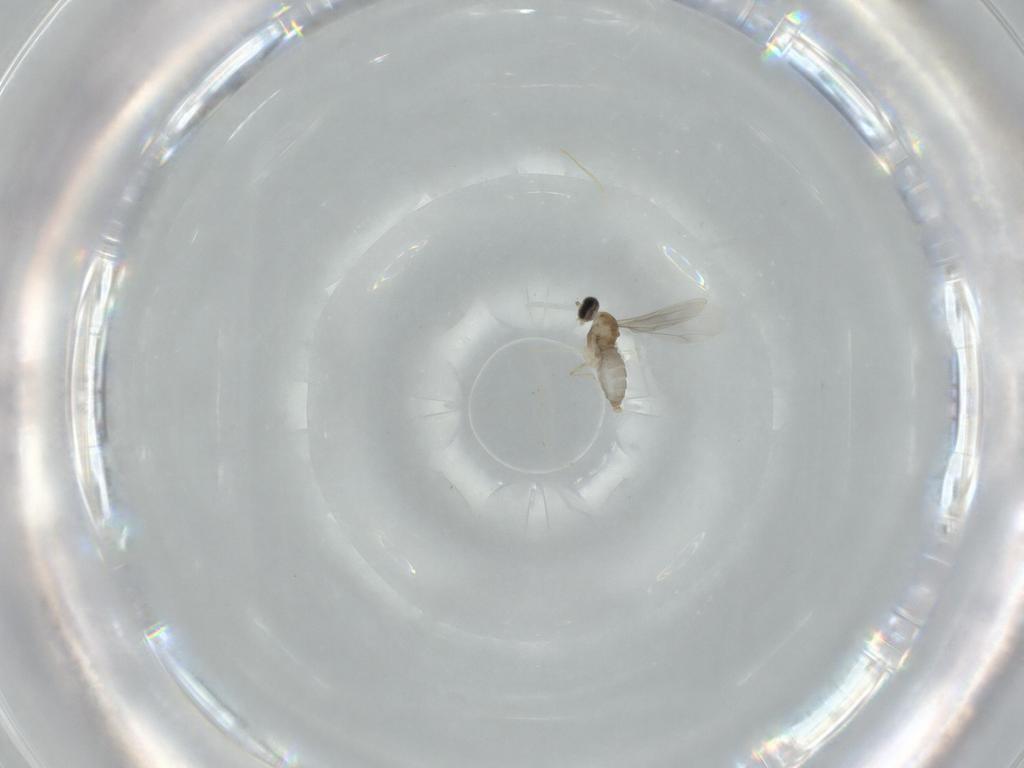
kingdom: Animalia
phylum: Arthropoda
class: Insecta
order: Diptera
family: Cecidomyiidae
